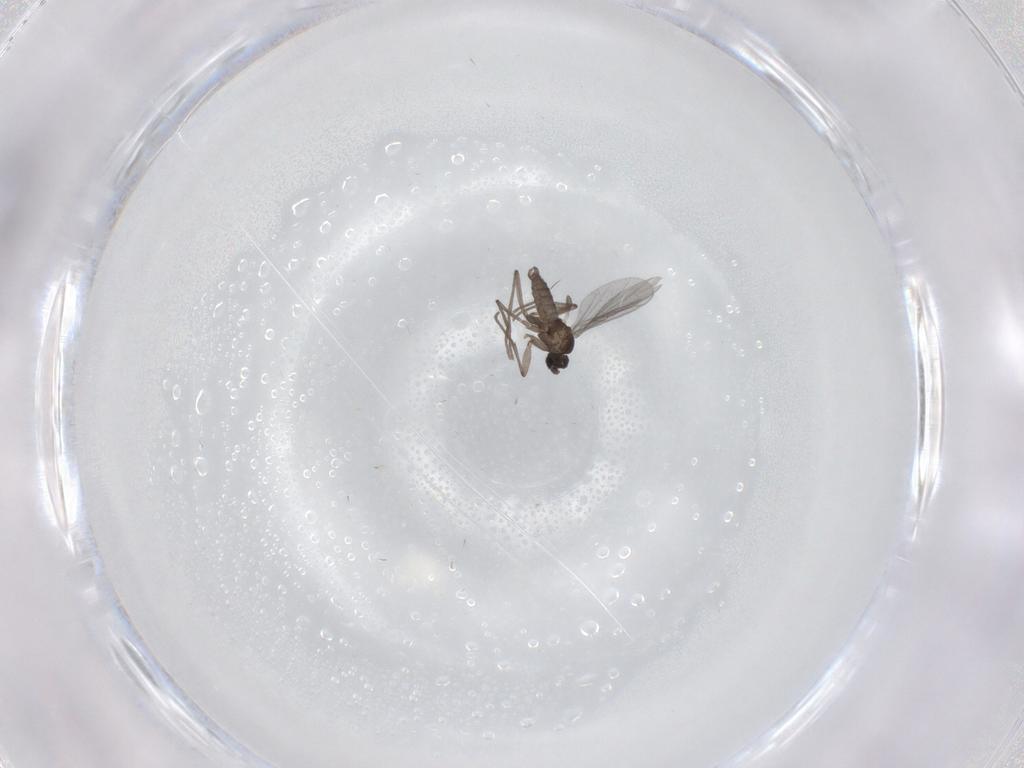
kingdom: Animalia
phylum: Arthropoda
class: Insecta
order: Diptera
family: Sciaridae
